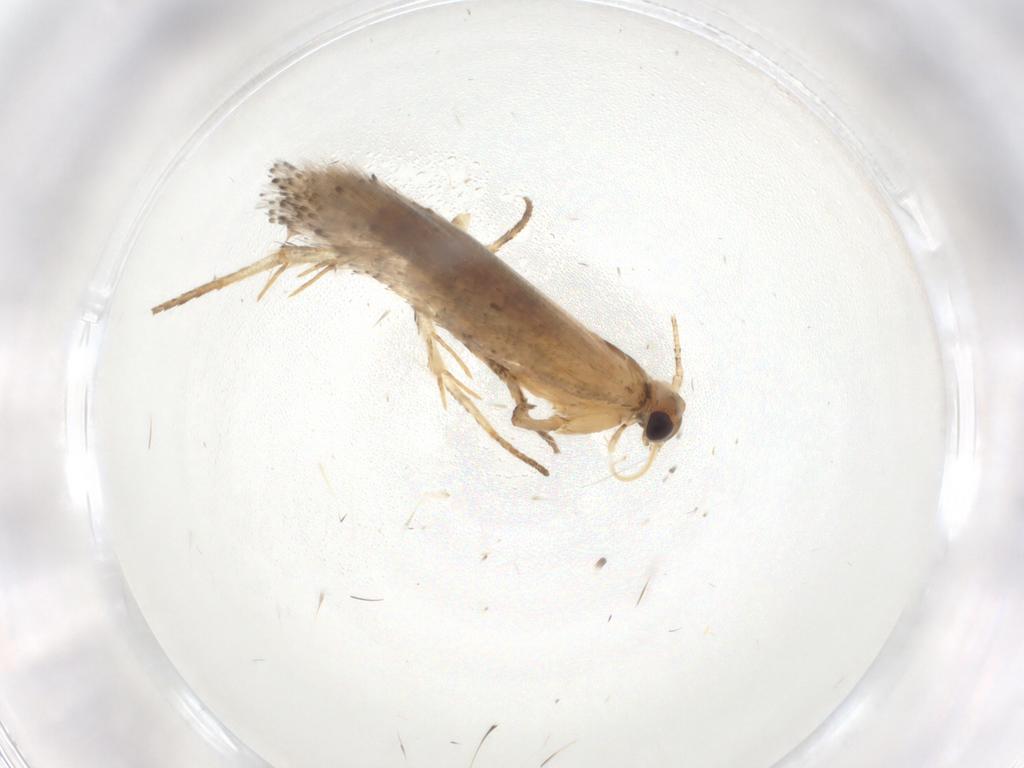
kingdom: Animalia
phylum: Arthropoda
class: Insecta
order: Lepidoptera
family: Gelechiidae
